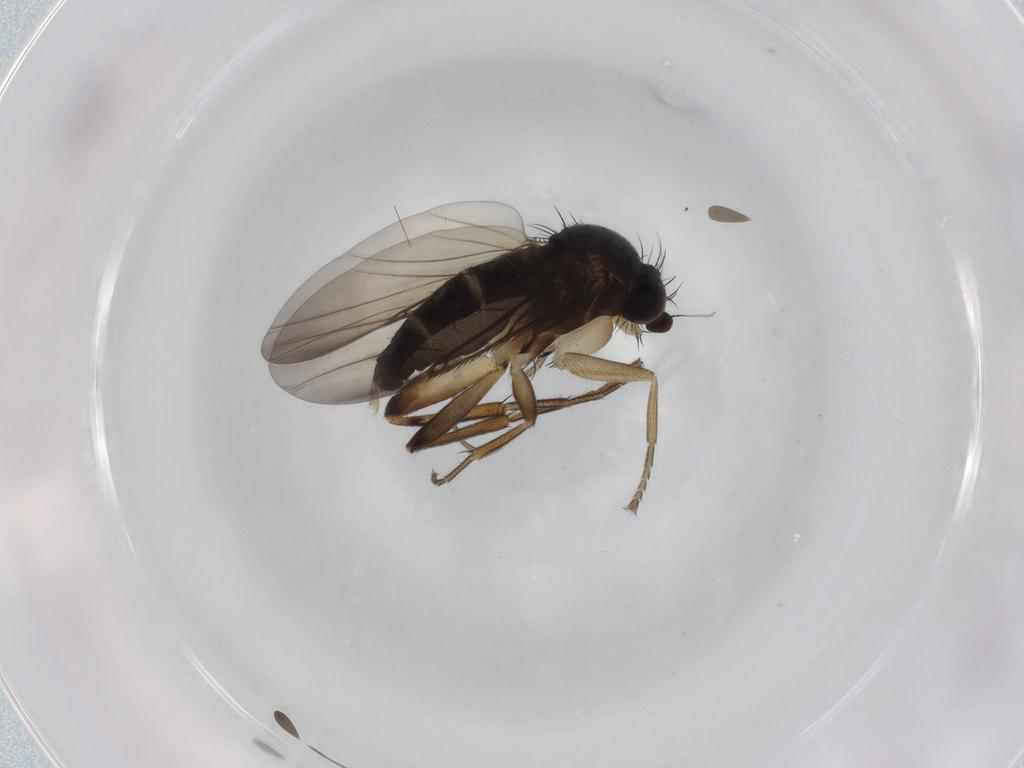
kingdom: Animalia
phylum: Arthropoda
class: Insecta
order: Diptera
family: Phoridae
